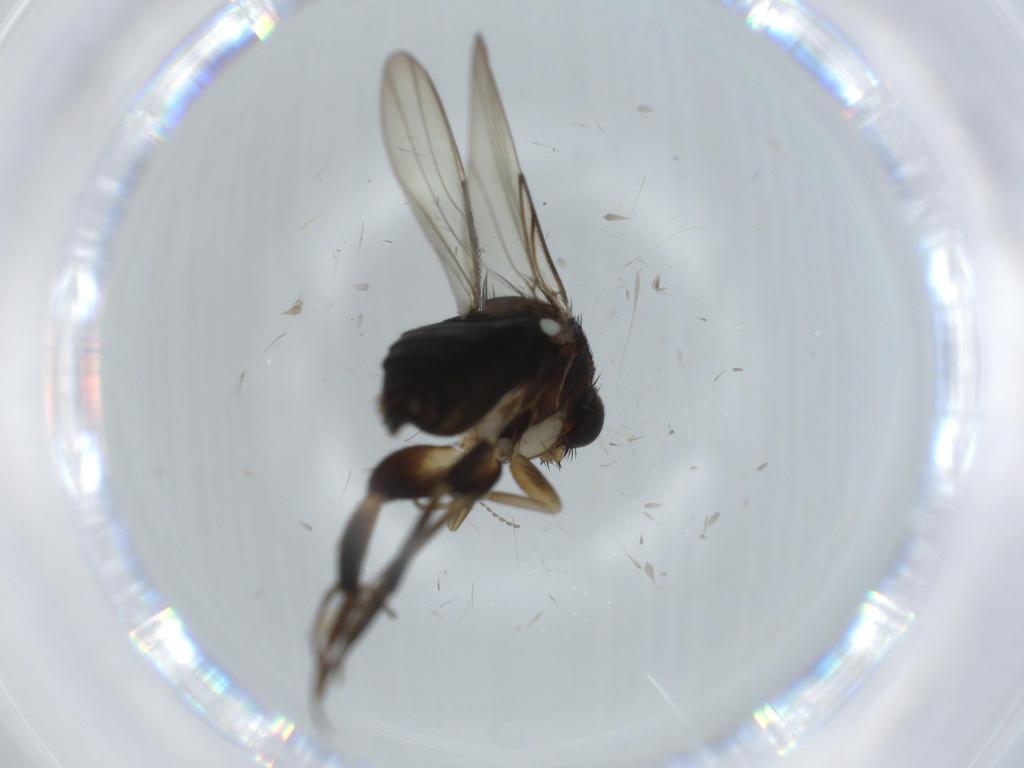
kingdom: Animalia
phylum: Arthropoda
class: Insecta
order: Diptera
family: Phoridae
